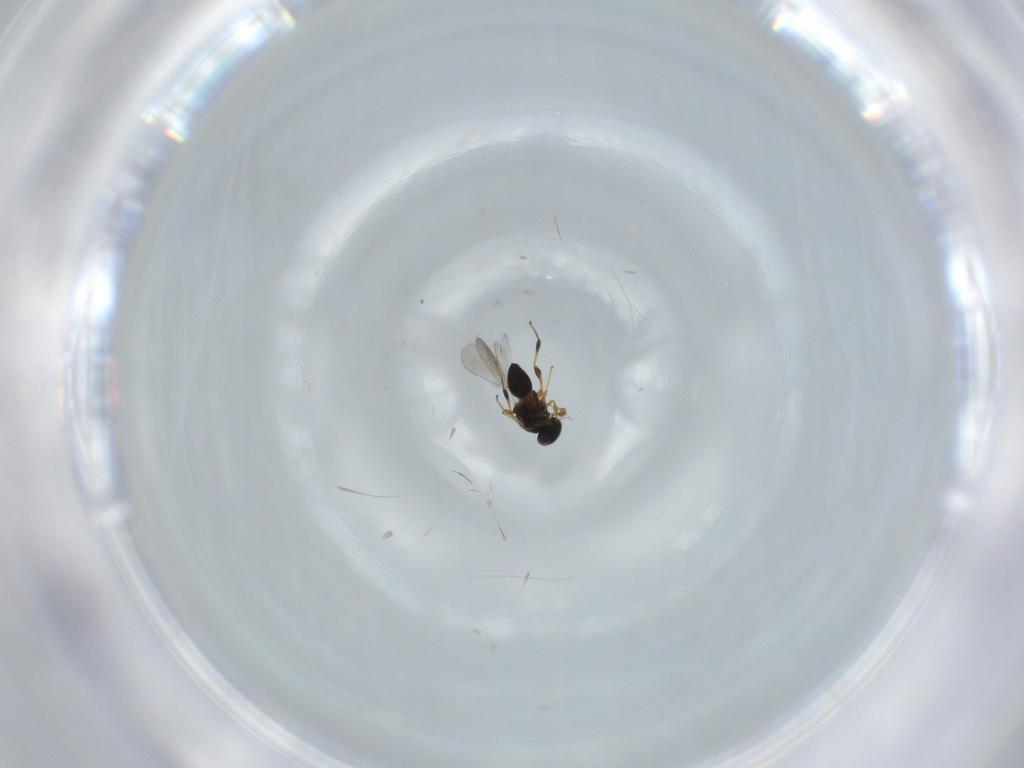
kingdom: Animalia
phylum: Arthropoda
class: Insecta
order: Hymenoptera
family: Platygastridae
